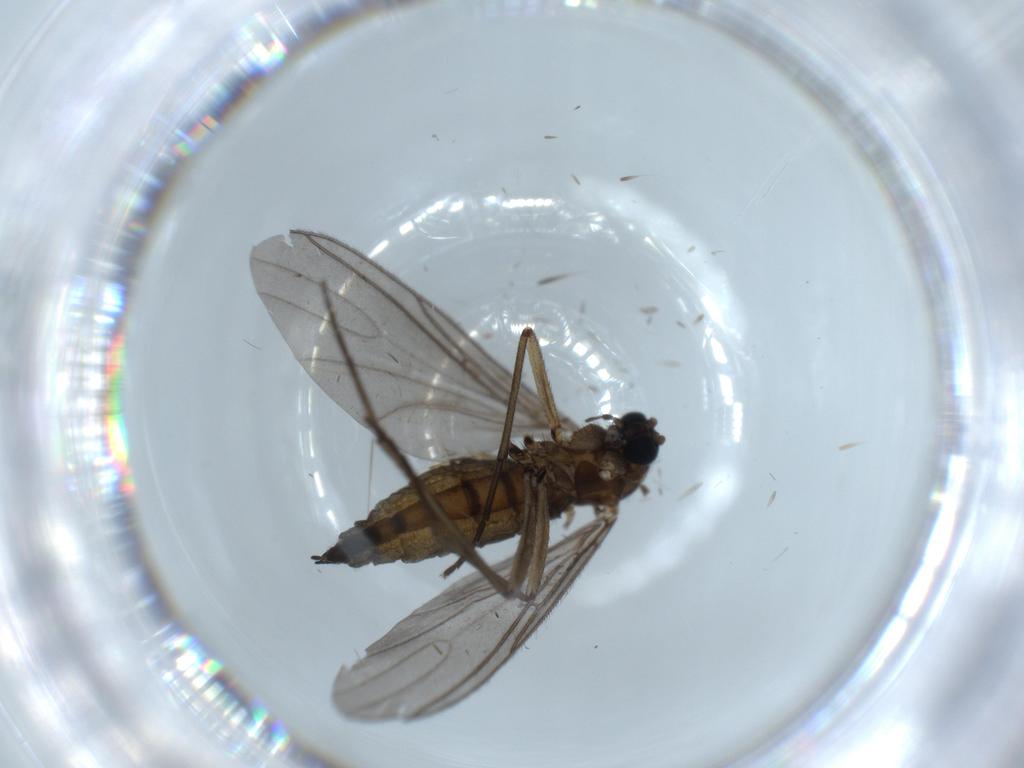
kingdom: Animalia
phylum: Arthropoda
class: Insecta
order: Diptera
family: Sciaridae
